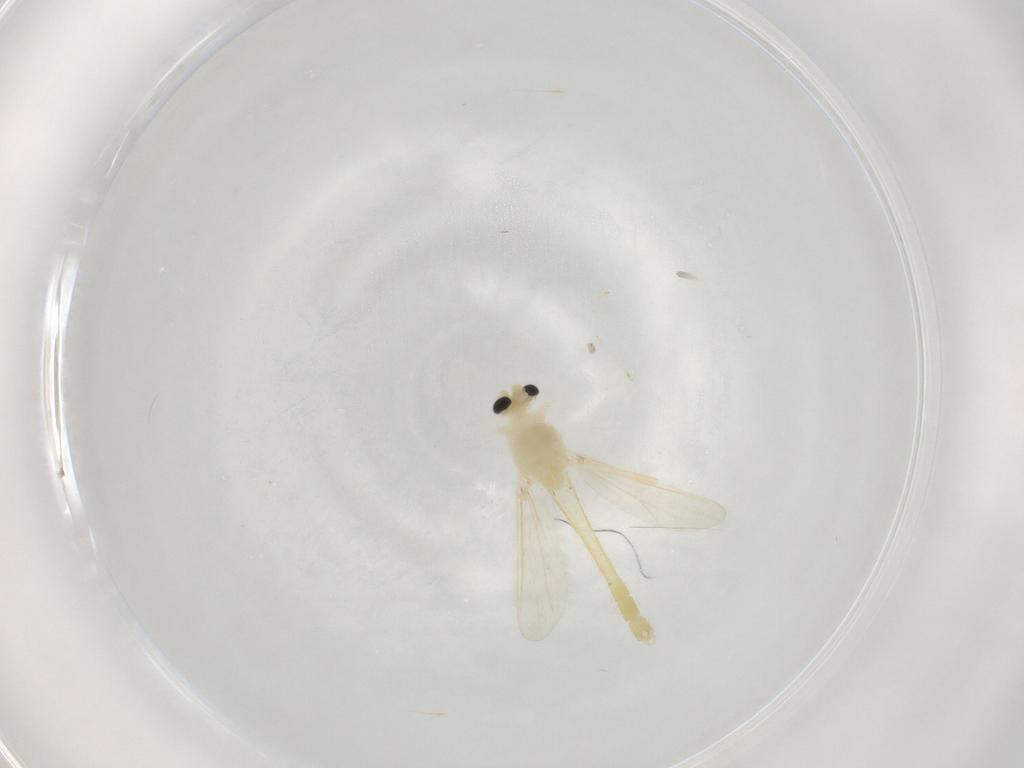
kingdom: Animalia
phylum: Arthropoda
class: Insecta
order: Diptera
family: Chironomidae
